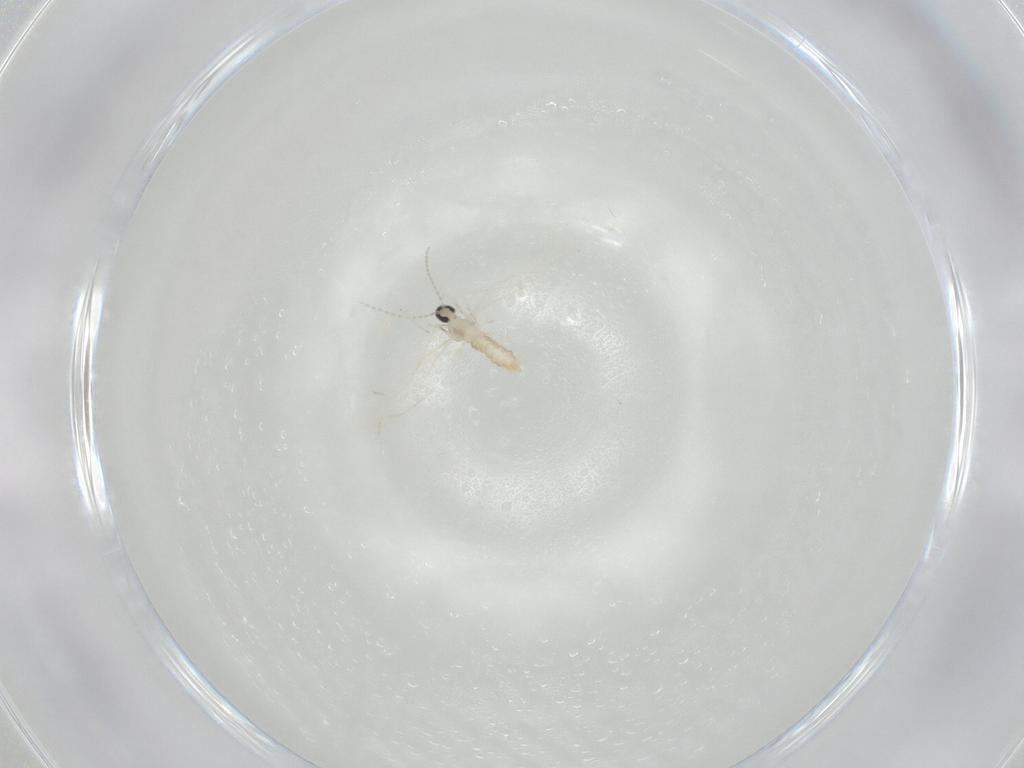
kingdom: Animalia
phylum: Arthropoda
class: Insecta
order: Diptera
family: Cecidomyiidae
